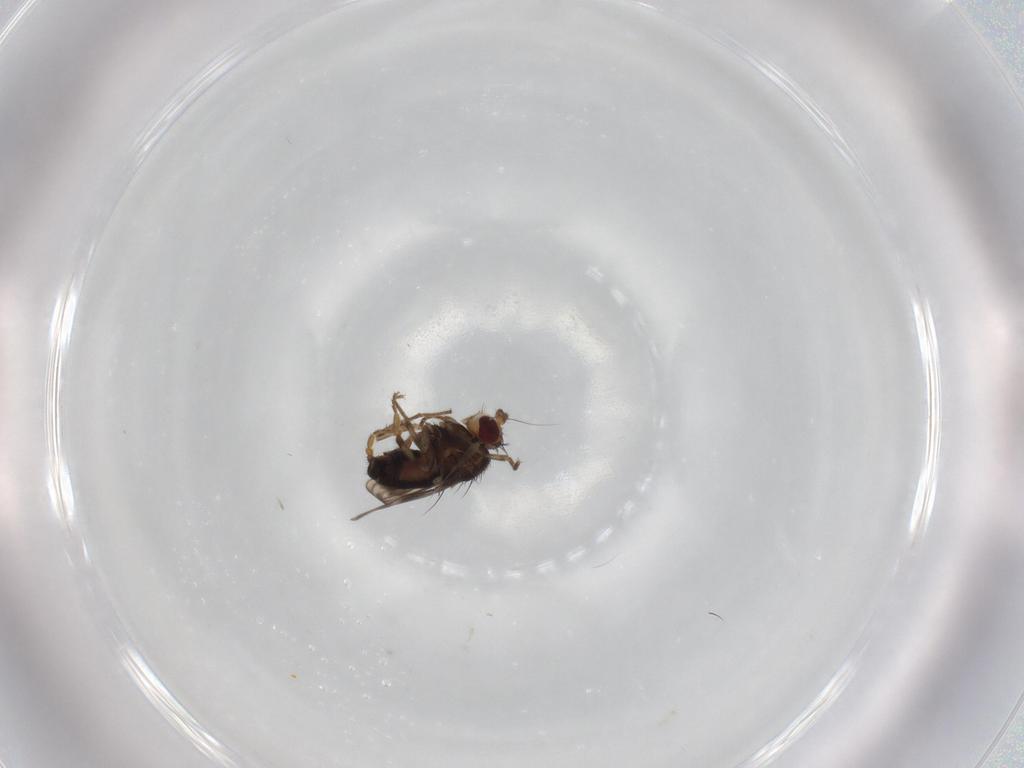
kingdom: Animalia
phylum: Arthropoda
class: Insecta
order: Diptera
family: Sphaeroceridae
